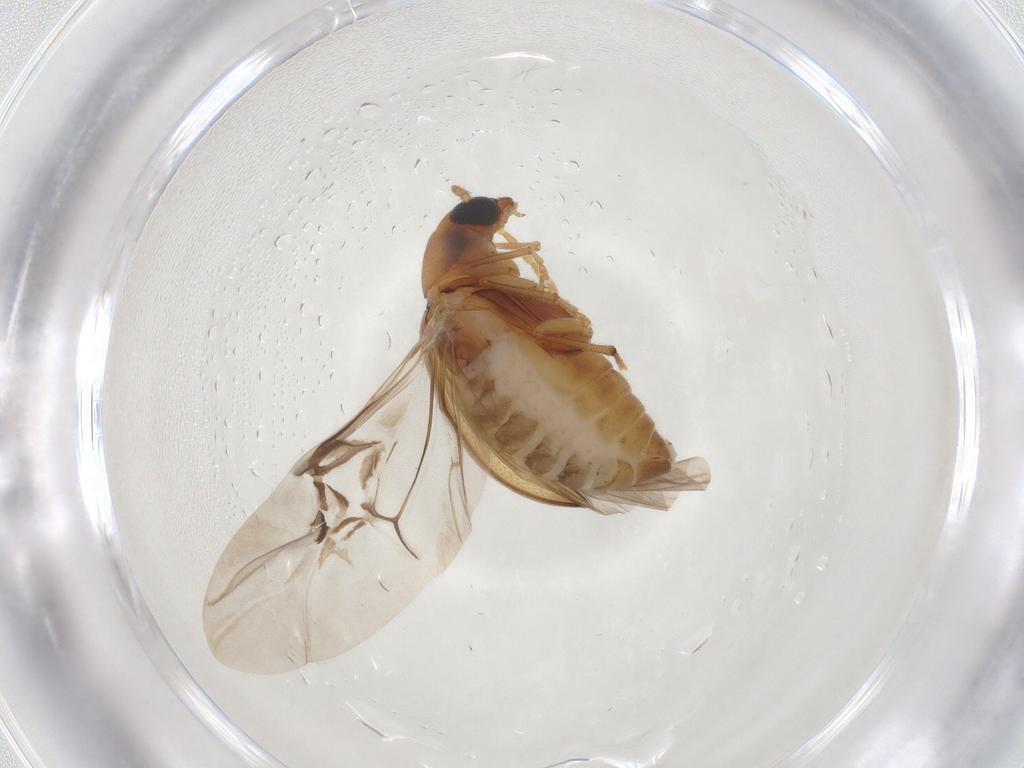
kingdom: Animalia
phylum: Arthropoda
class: Insecta
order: Coleoptera
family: Chrysomelidae
